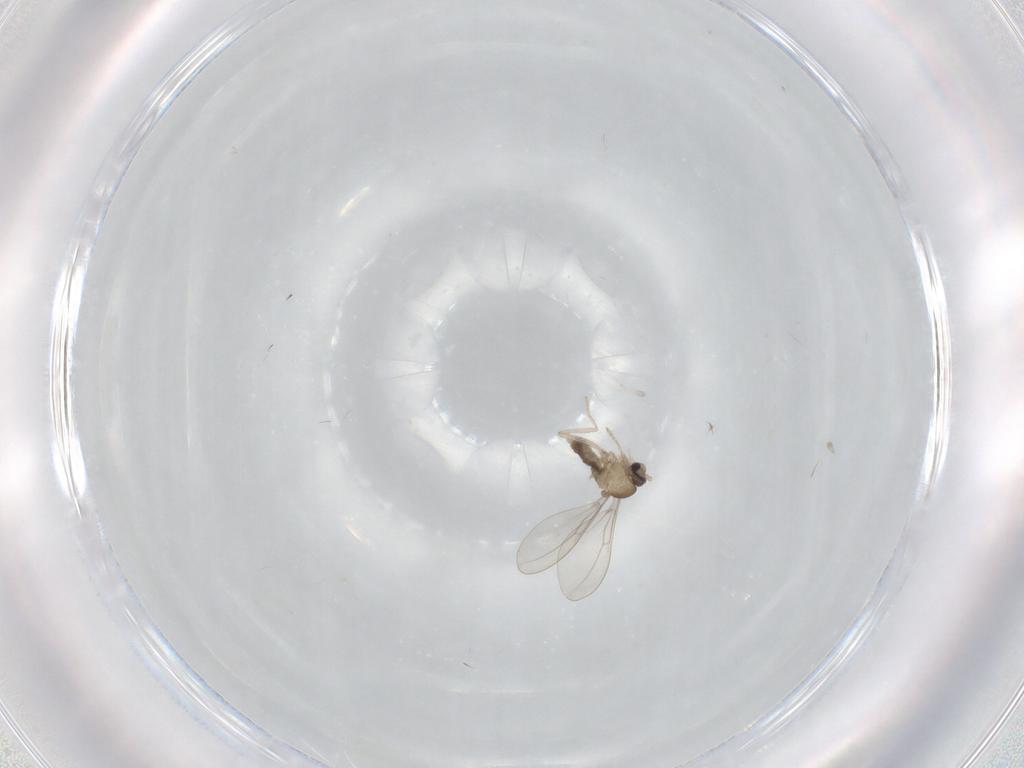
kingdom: Animalia
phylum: Arthropoda
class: Insecta
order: Diptera
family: Cecidomyiidae
